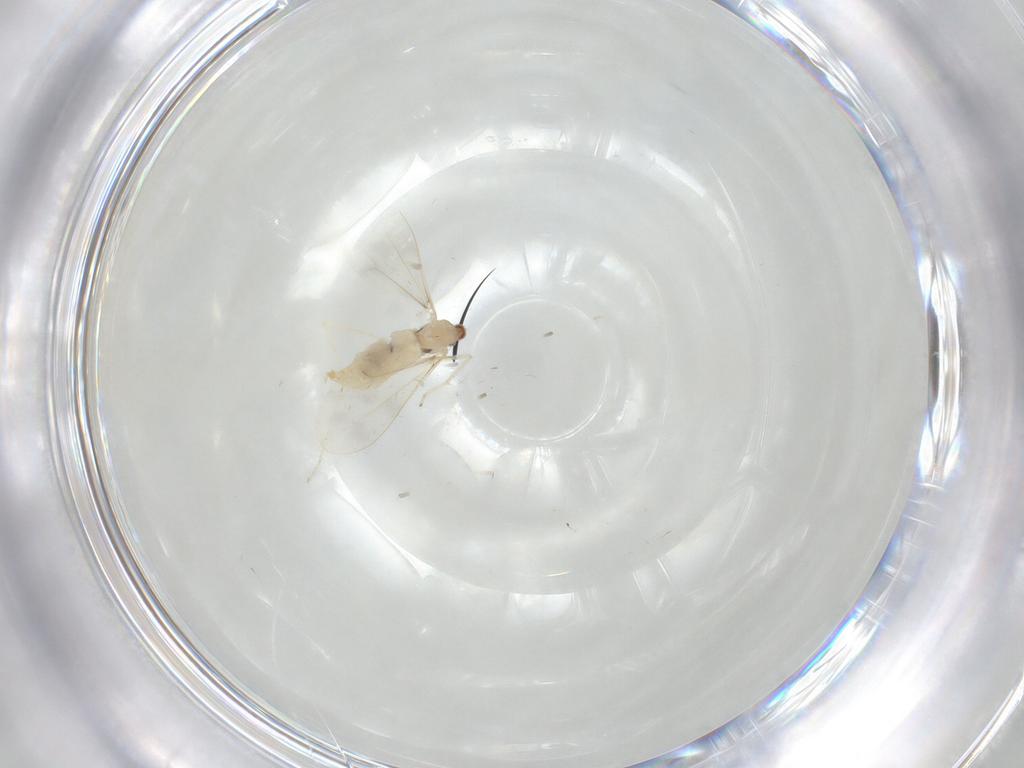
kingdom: Animalia
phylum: Arthropoda
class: Insecta
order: Diptera
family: Cecidomyiidae
